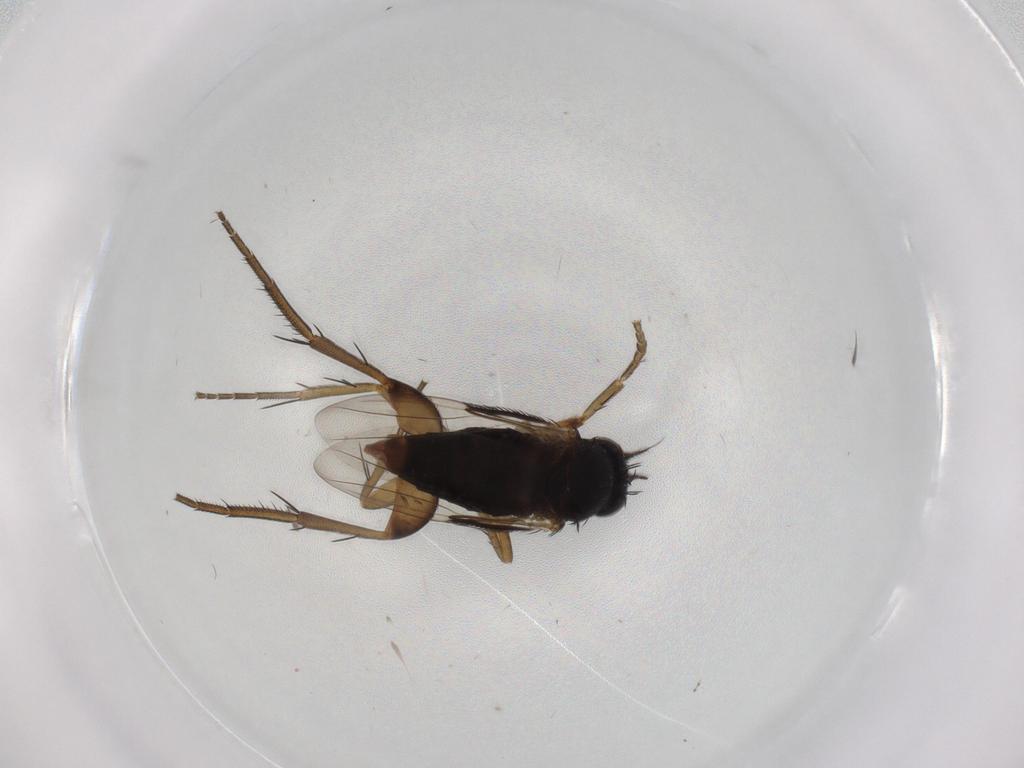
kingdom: Animalia
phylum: Arthropoda
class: Insecta
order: Diptera
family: Phoridae
